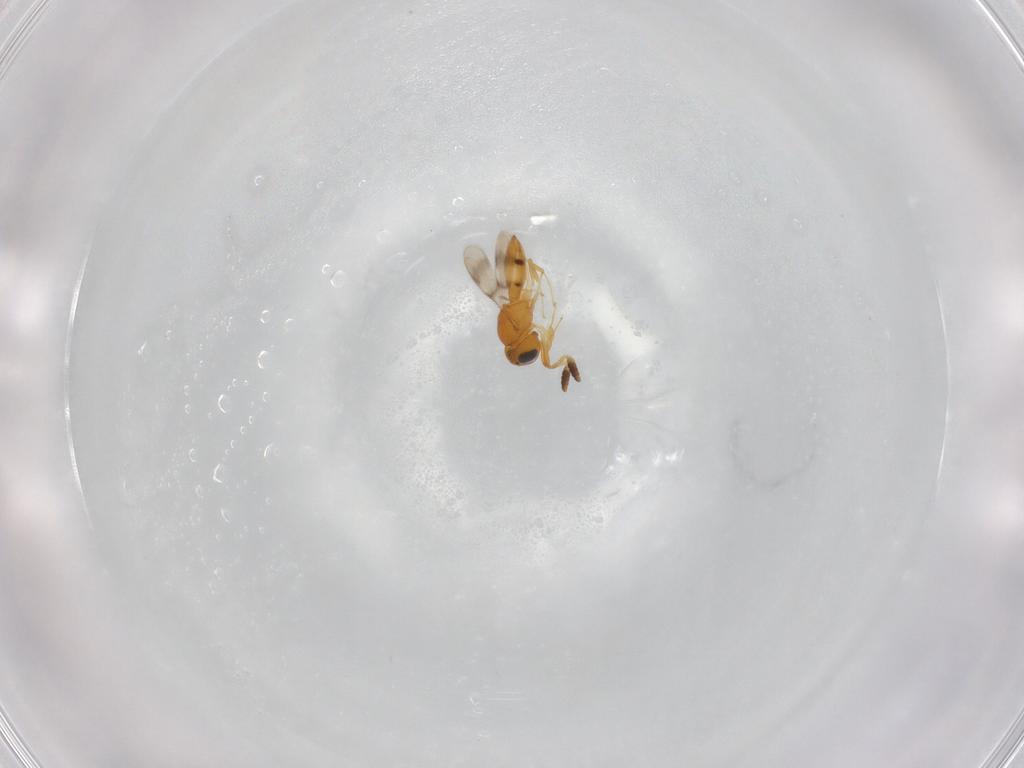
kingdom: Animalia
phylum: Arthropoda
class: Insecta
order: Hymenoptera
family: Scelionidae
